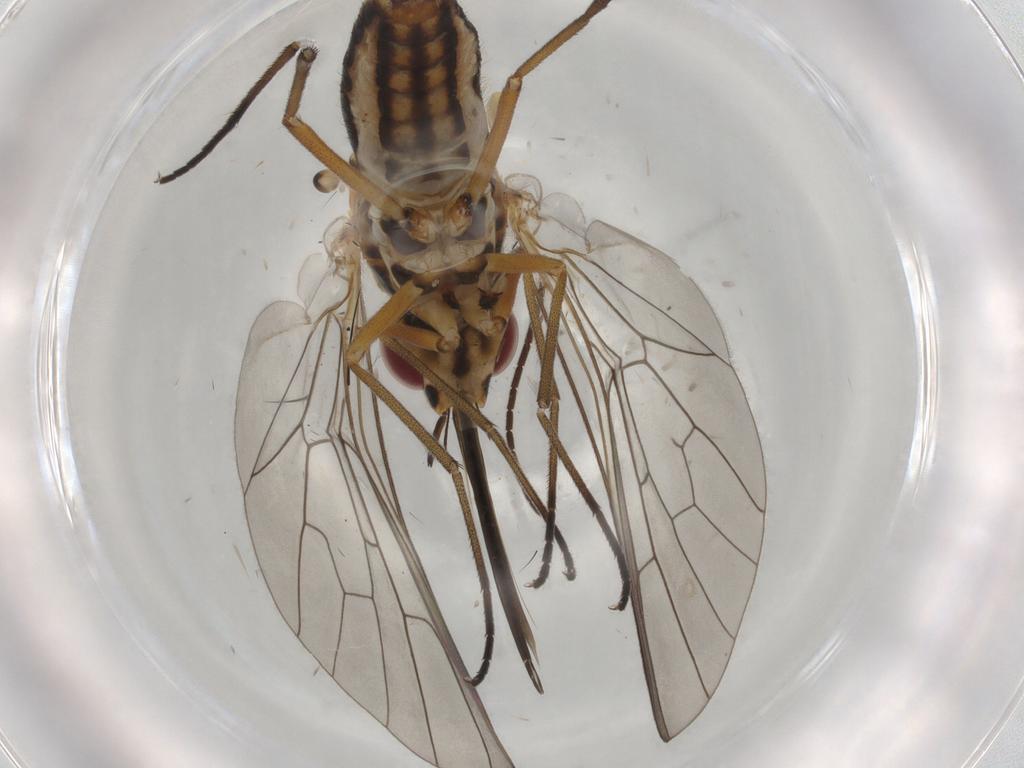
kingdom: Animalia
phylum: Arthropoda
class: Insecta
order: Diptera
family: Bombyliidae
